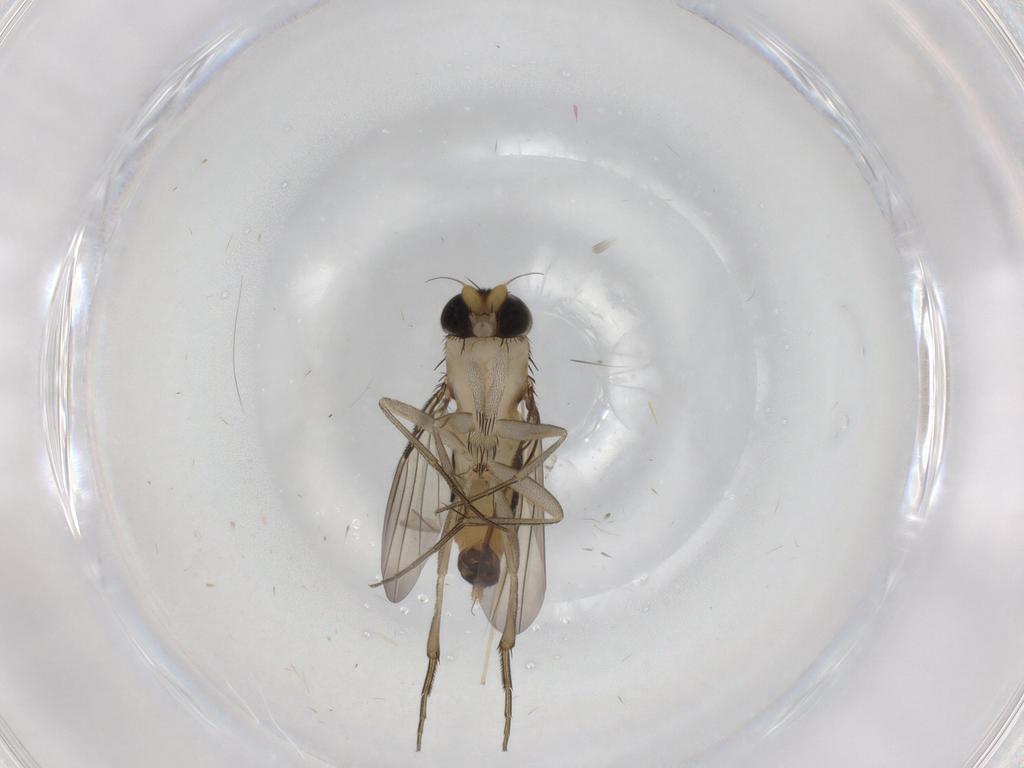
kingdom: Animalia
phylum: Arthropoda
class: Insecta
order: Diptera
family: Phoridae
